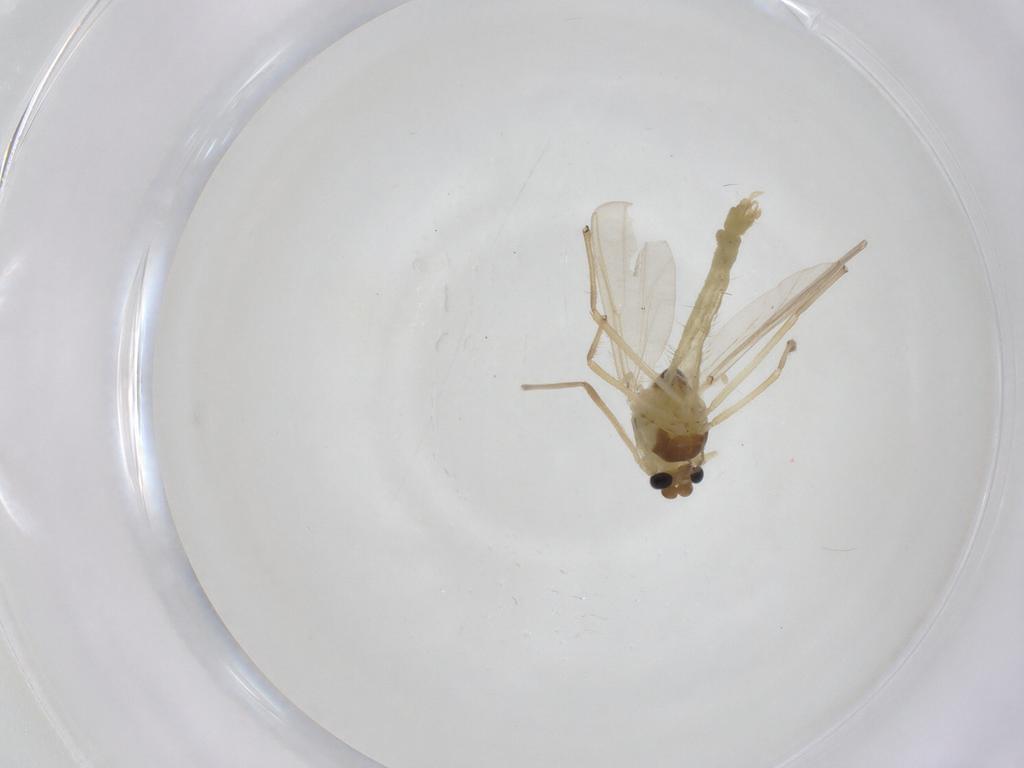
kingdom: Animalia
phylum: Arthropoda
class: Insecta
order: Diptera
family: Chironomidae
